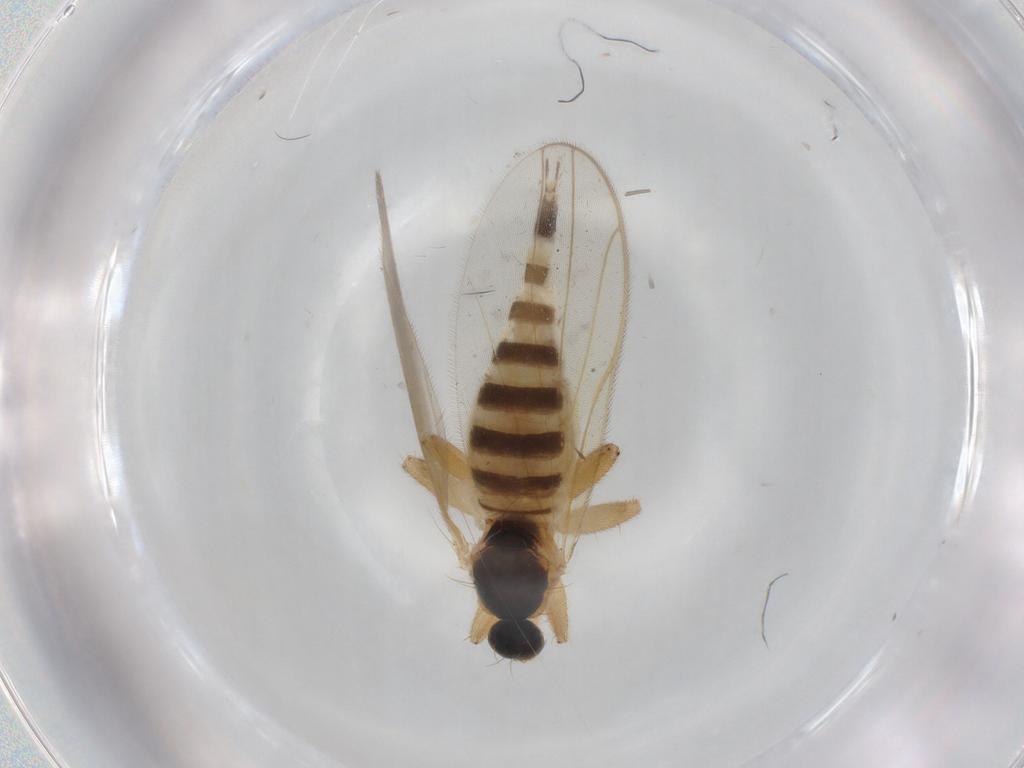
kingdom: Animalia
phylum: Arthropoda
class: Insecta
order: Diptera
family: Hybotidae
